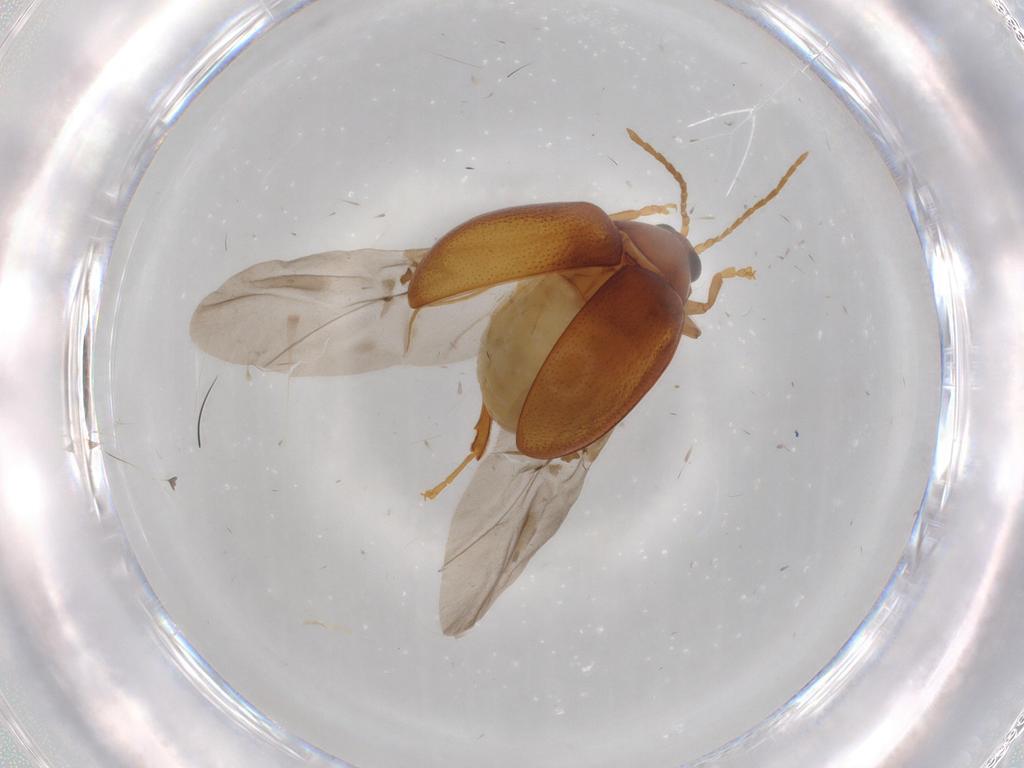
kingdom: Animalia
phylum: Arthropoda
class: Insecta
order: Coleoptera
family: Chrysomelidae
